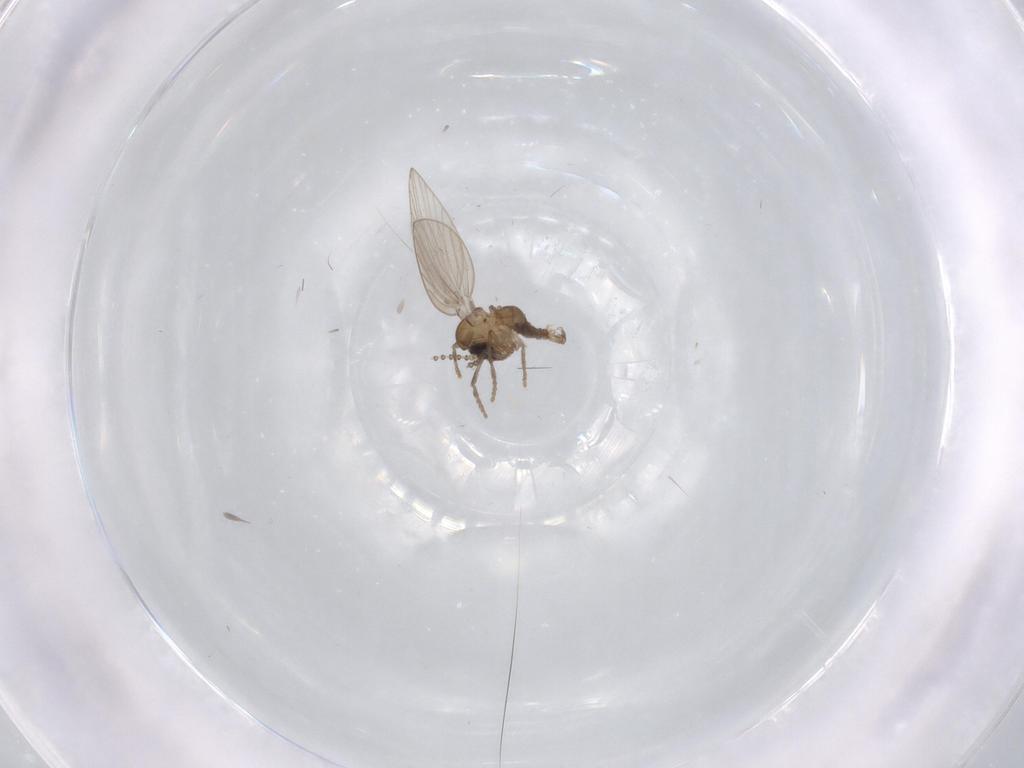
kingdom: Animalia
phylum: Arthropoda
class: Insecta
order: Diptera
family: Psychodidae
